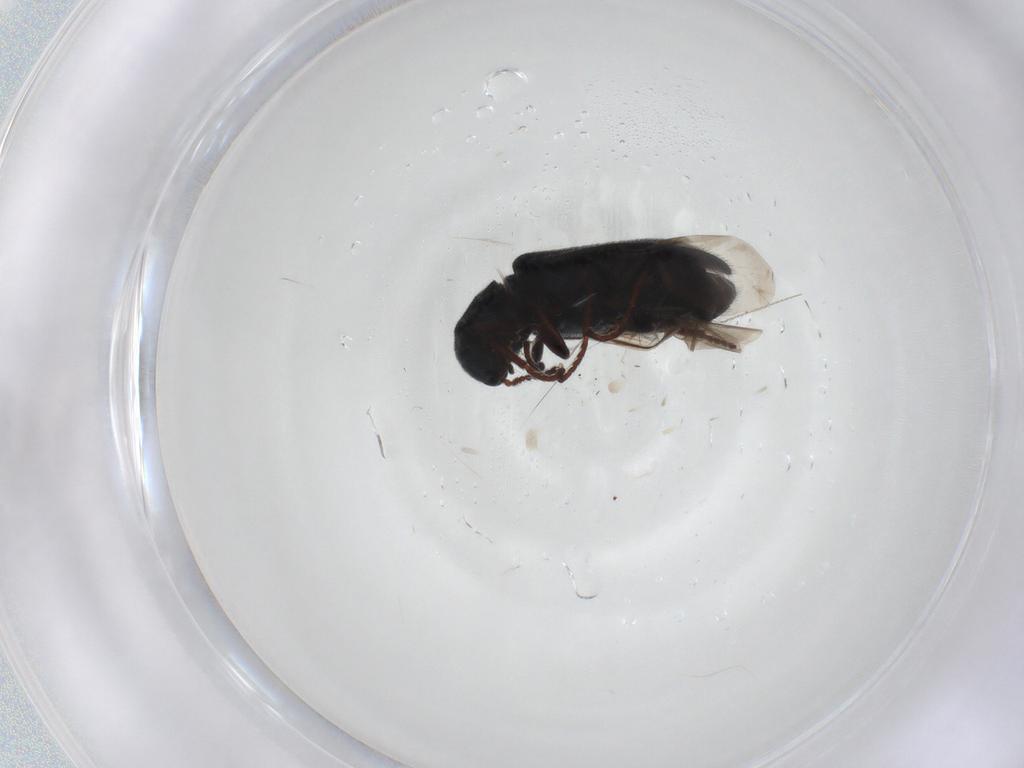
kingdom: Animalia
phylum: Arthropoda
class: Insecta
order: Coleoptera
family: Melyridae
